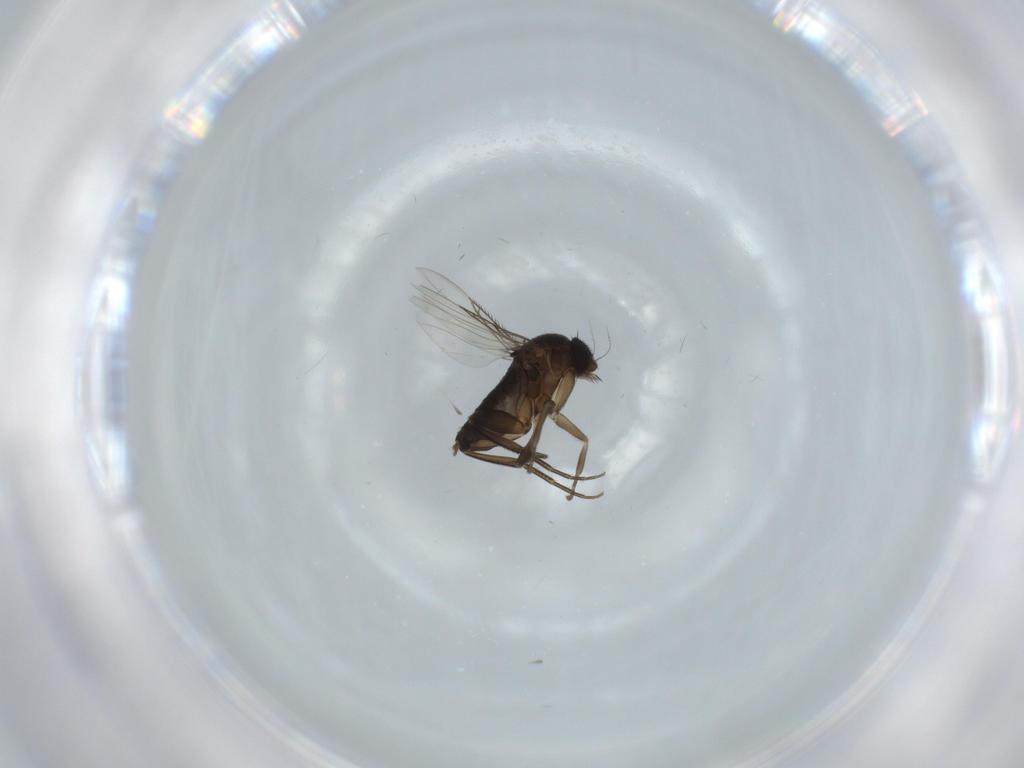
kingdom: Animalia
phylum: Arthropoda
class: Insecta
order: Diptera
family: Phoridae
